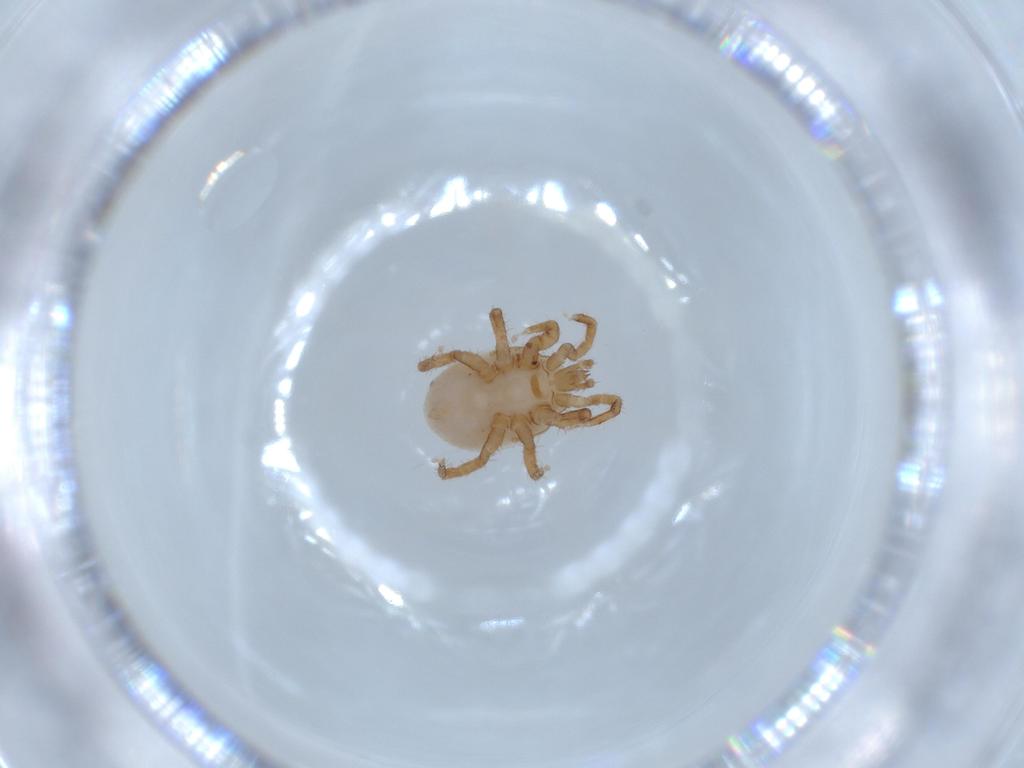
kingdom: Animalia
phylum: Arthropoda
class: Arachnida
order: Mesostigmata
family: Parasitidae
